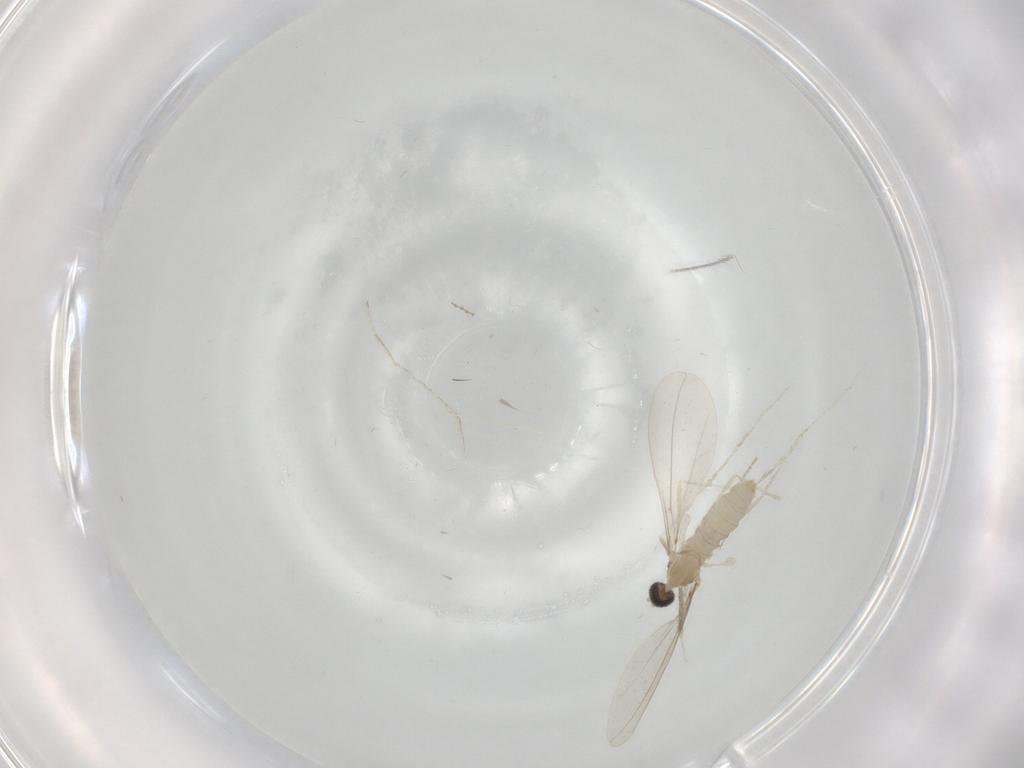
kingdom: Animalia
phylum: Arthropoda
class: Insecta
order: Diptera
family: Cecidomyiidae
